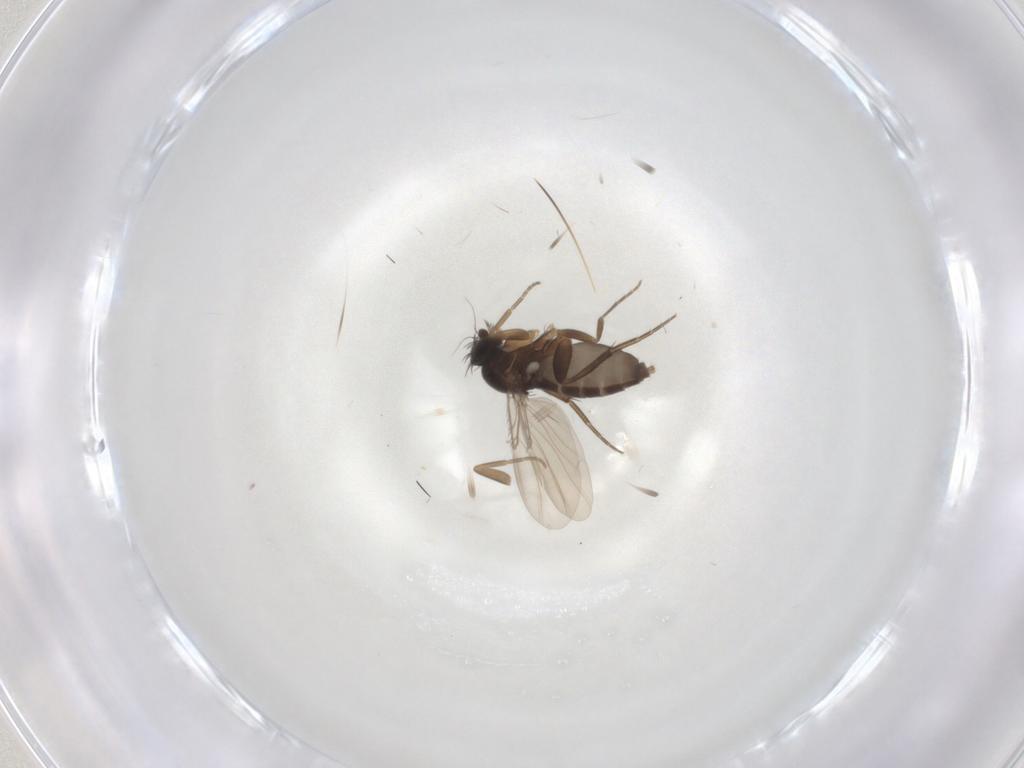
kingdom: Animalia
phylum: Arthropoda
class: Insecta
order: Diptera
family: Phoridae
